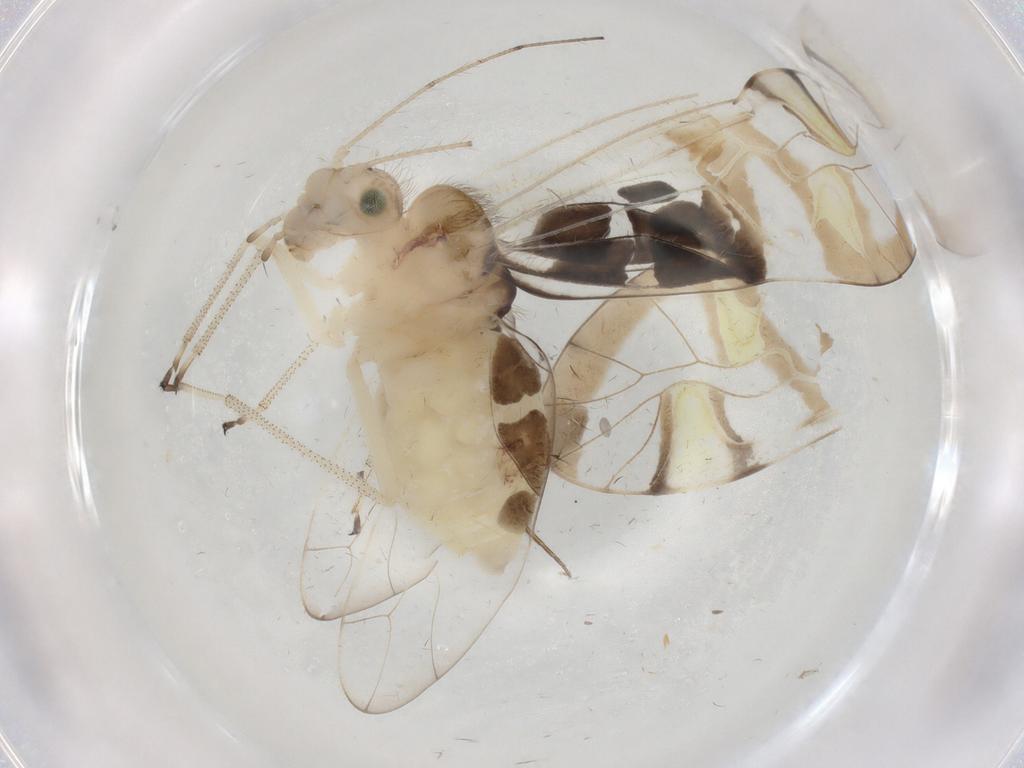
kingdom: Animalia
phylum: Arthropoda
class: Insecta
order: Psocodea
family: Amphipsocidae
